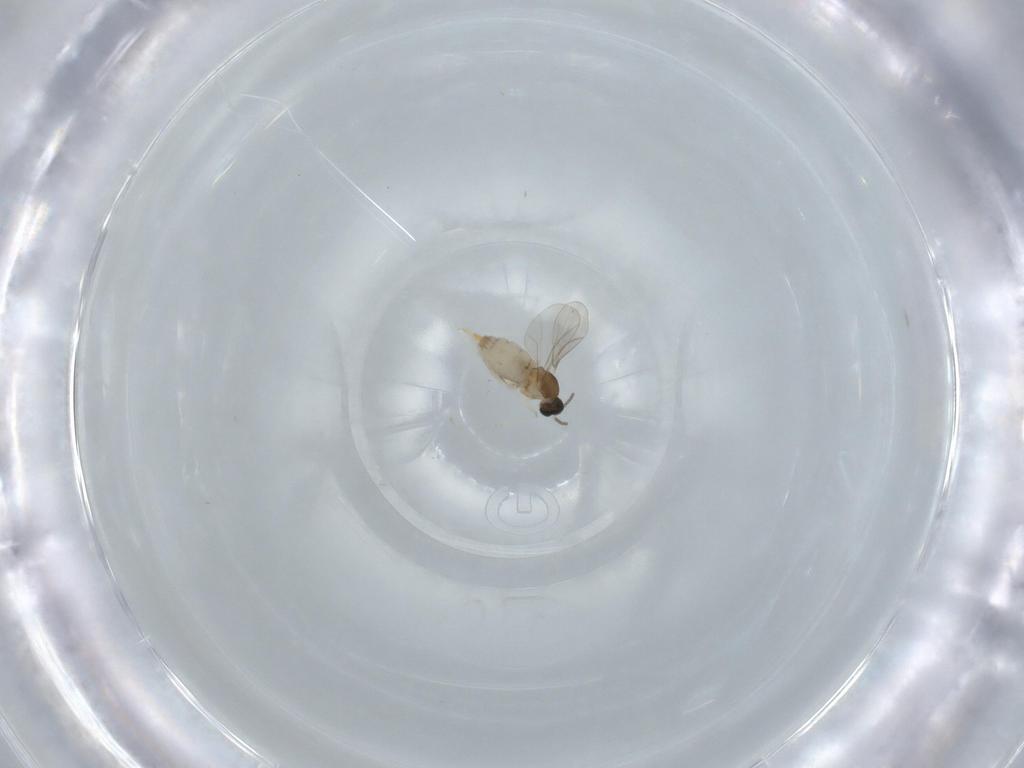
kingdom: Animalia
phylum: Arthropoda
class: Insecta
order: Diptera
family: Cecidomyiidae
